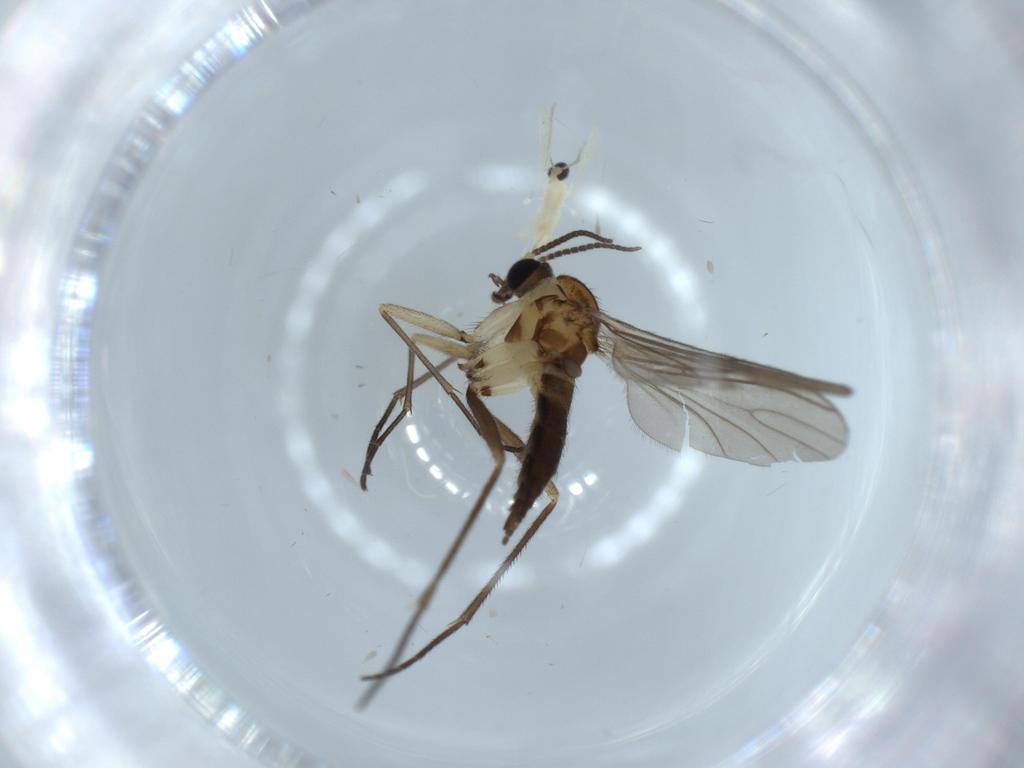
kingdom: Animalia
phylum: Arthropoda
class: Insecta
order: Diptera
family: Cecidomyiidae
